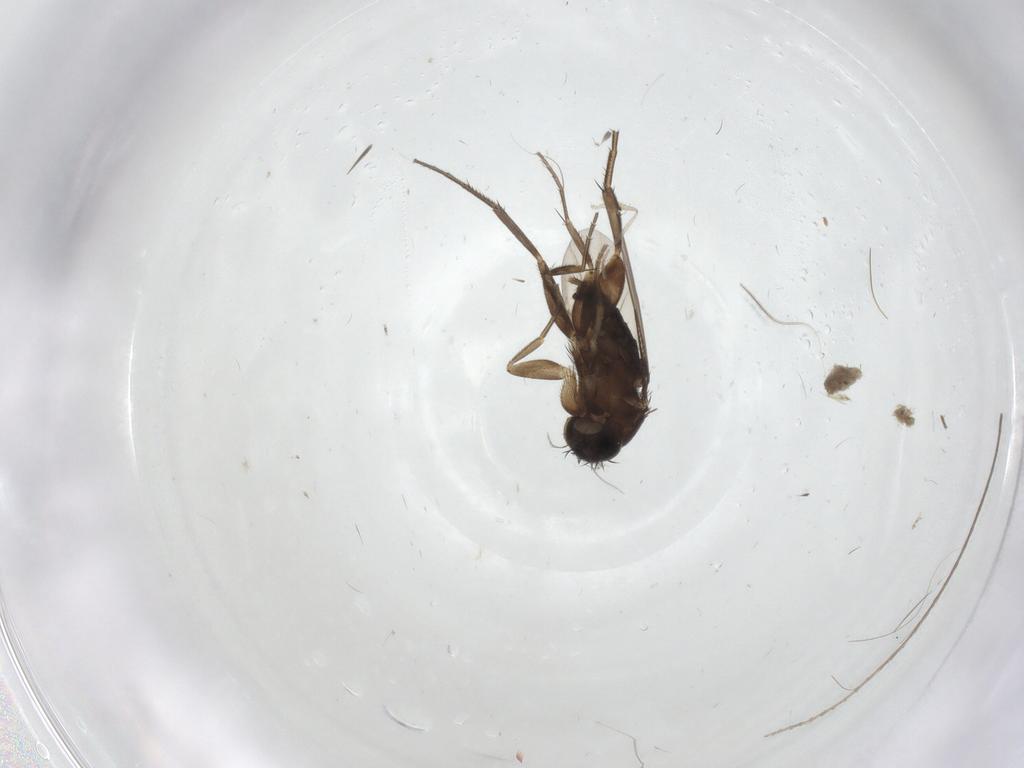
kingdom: Animalia
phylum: Arthropoda
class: Insecta
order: Diptera
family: Phoridae
